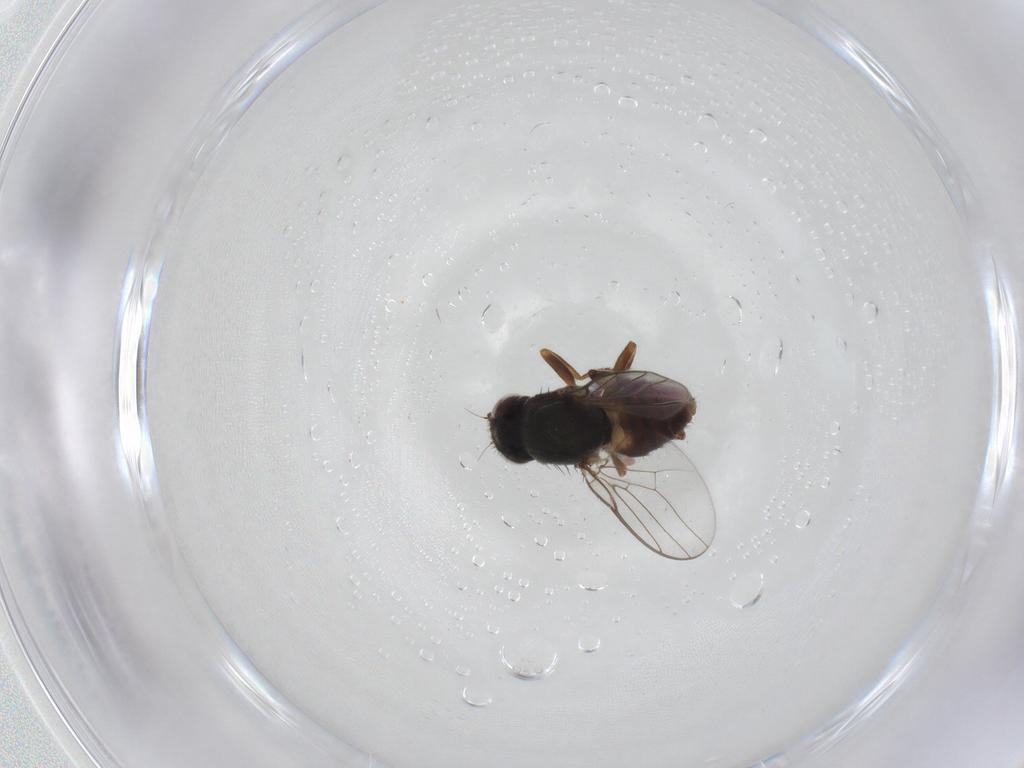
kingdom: Animalia
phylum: Arthropoda
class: Insecta
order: Diptera
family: Chloropidae
